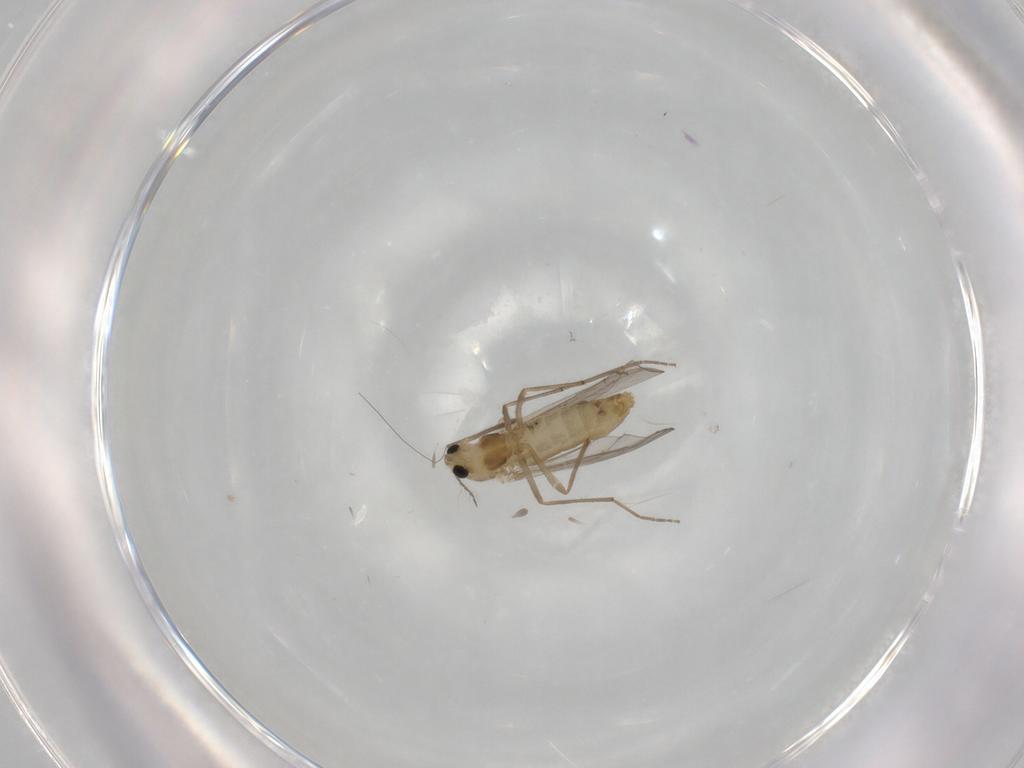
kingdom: Animalia
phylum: Arthropoda
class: Insecta
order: Diptera
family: Chironomidae
